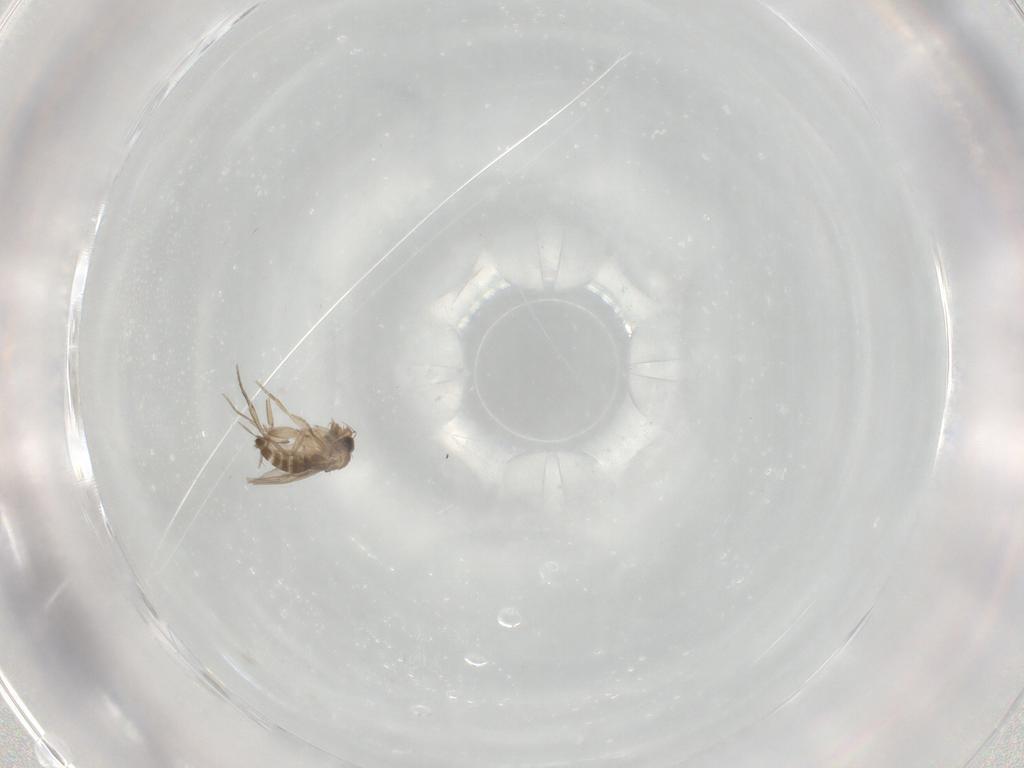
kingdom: Animalia
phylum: Arthropoda
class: Insecta
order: Diptera
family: Phoridae
